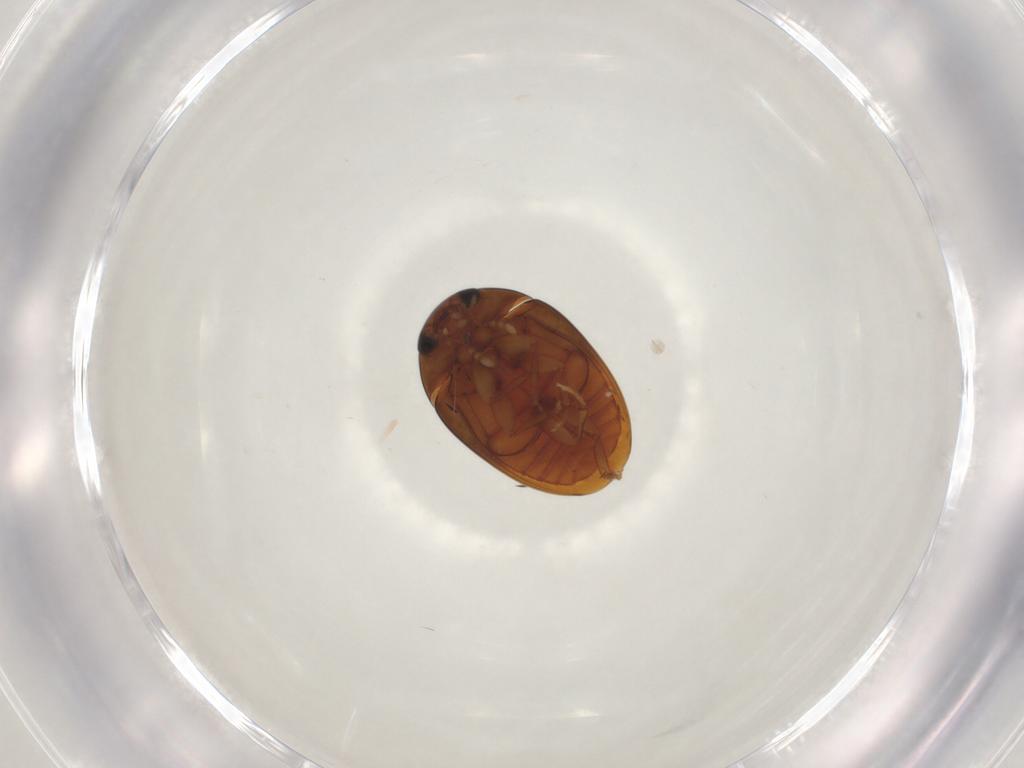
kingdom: Animalia
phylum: Arthropoda
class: Insecta
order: Coleoptera
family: Phalacridae
